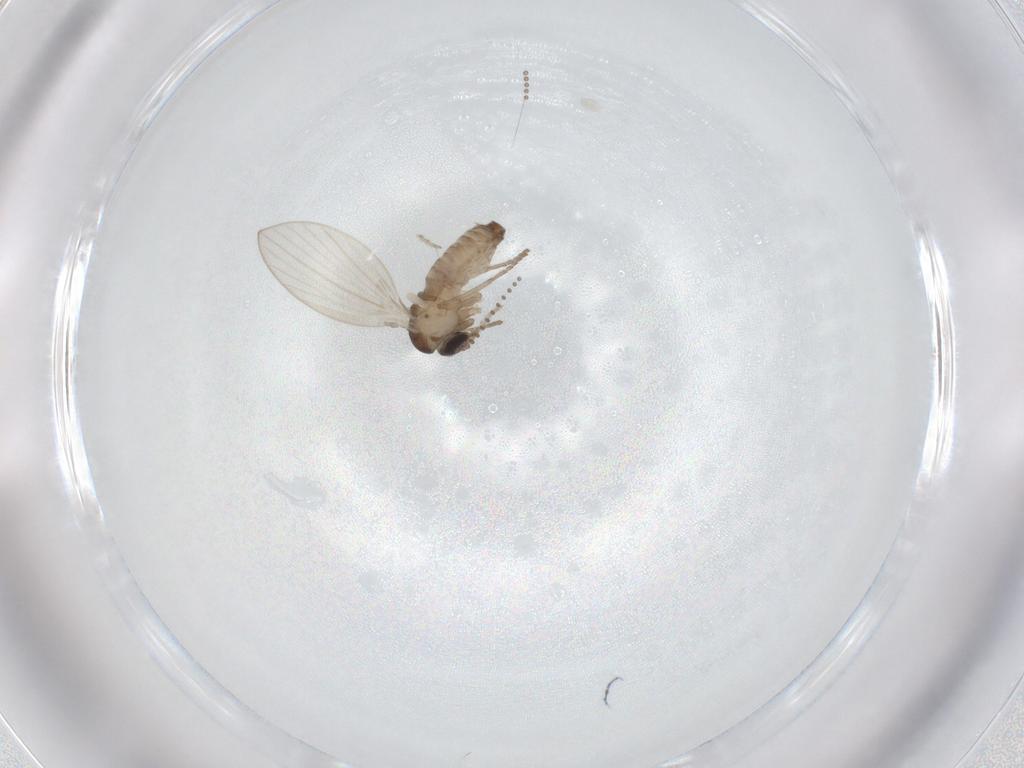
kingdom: Animalia
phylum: Arthropoda
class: Insecta
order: Diptera
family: Psychodidae
